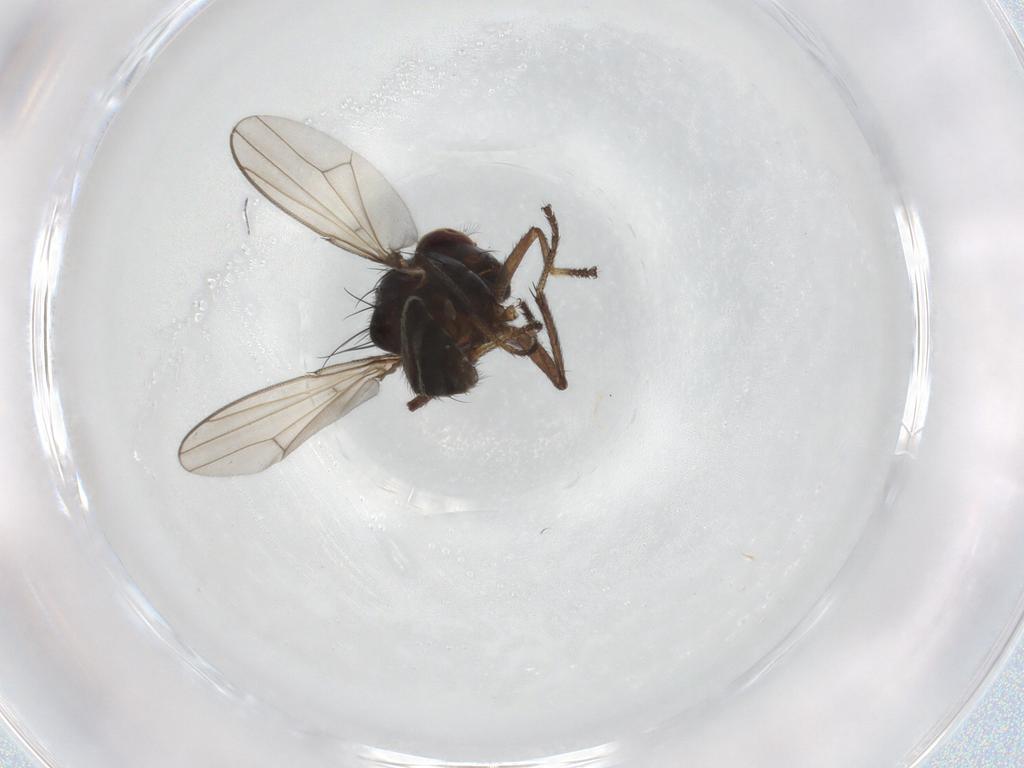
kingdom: Animalia
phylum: Arthropoda
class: Insecta
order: Diptera
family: Ephydridae
